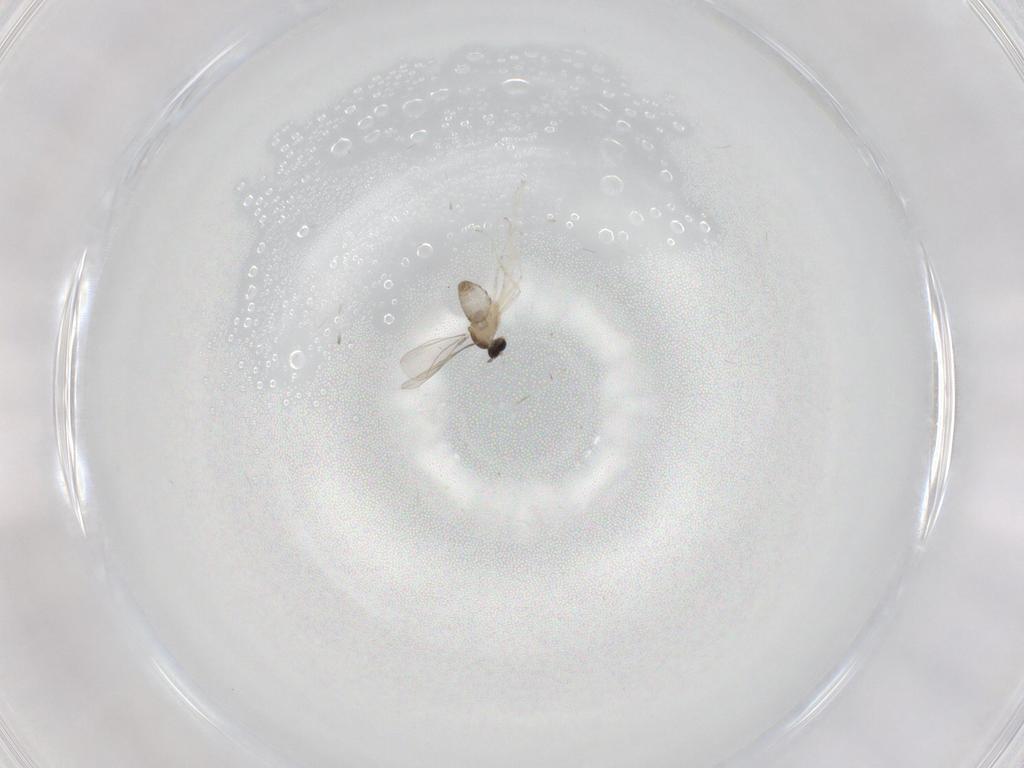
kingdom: Animalia
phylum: Arthropoda
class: Insecta
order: Diptera
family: Cecidomyiidae
